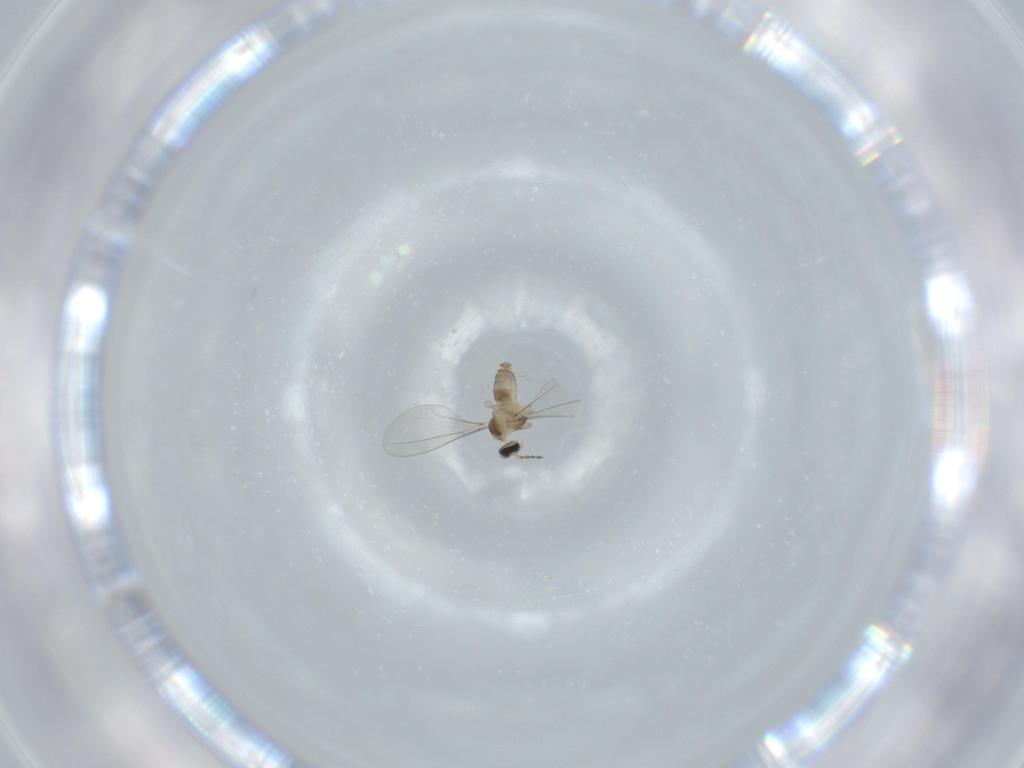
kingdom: Animalia
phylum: Arthropoda
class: Insecta
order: Diptera
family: Cecidomyiidae
